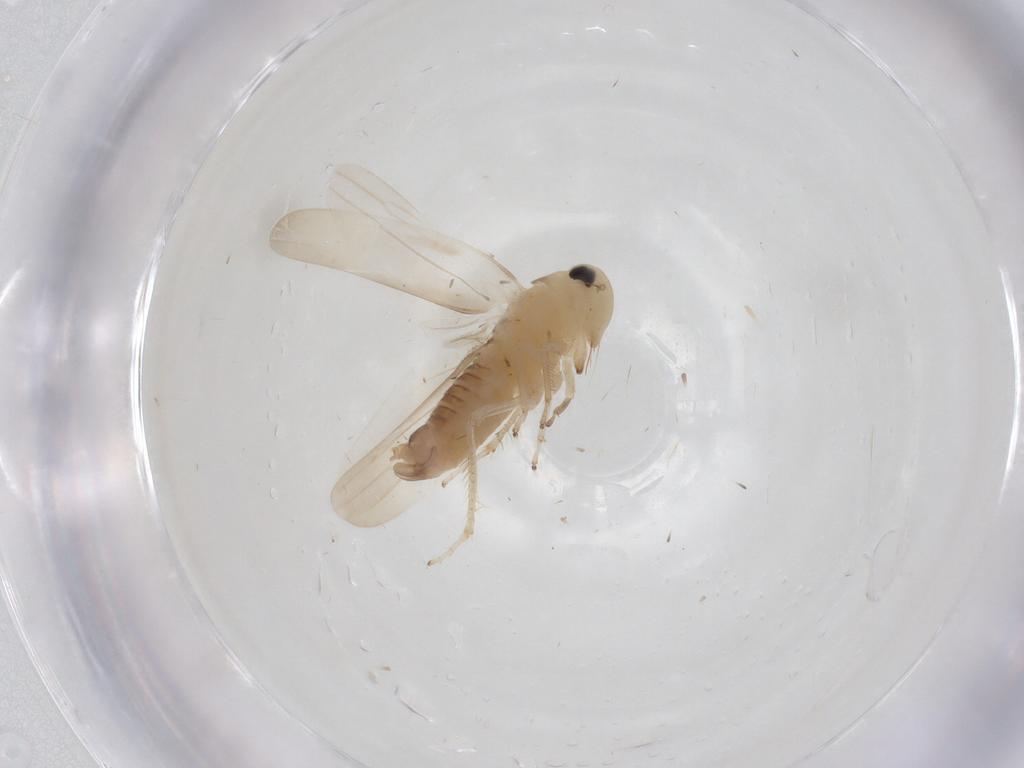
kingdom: Animalia
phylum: Arthropoda
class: Insecta
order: Hemiptera
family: Cicadellidae
